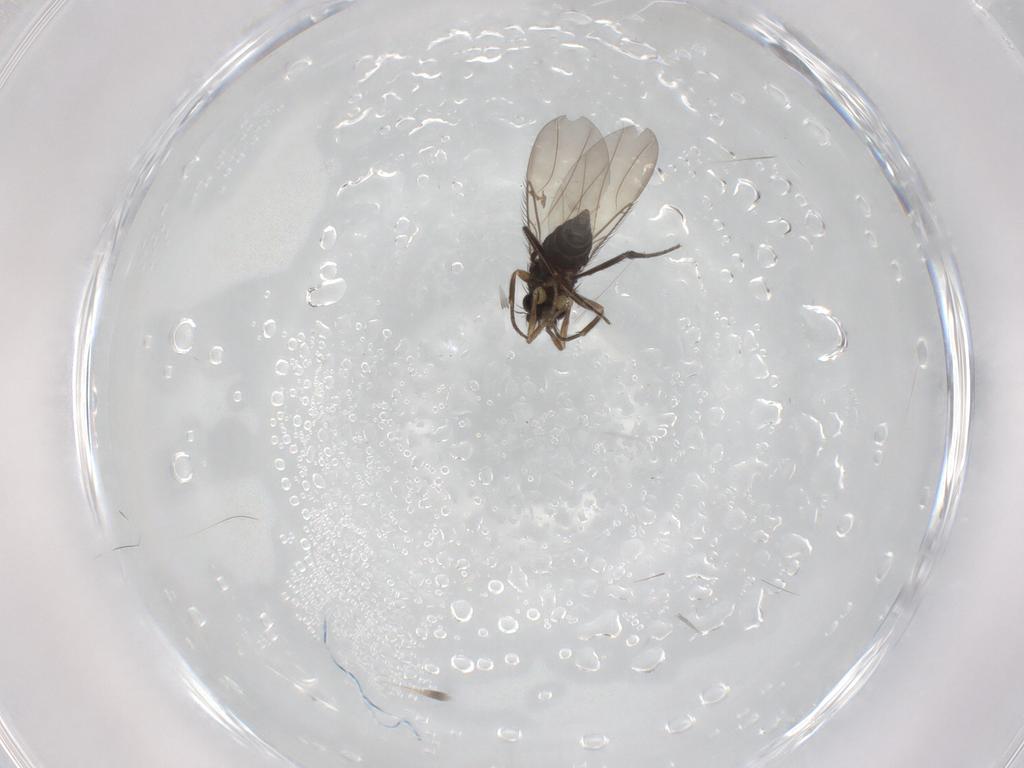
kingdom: Animalia
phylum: Arthropoda
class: Insecta
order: Diptera
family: Phoridae
